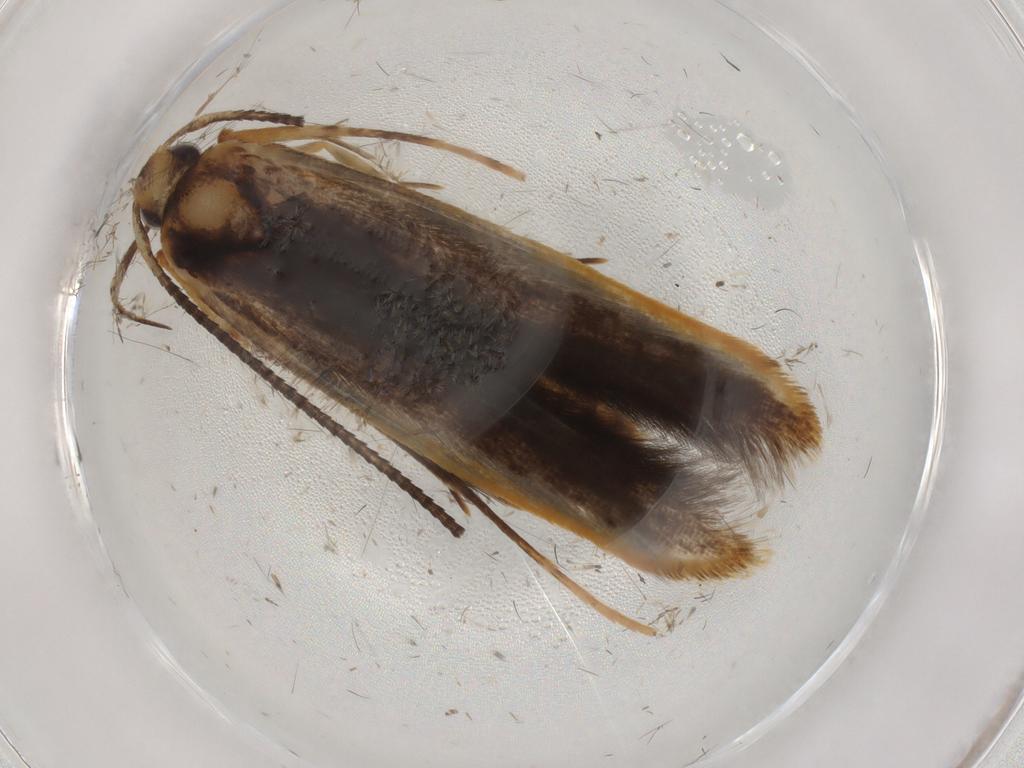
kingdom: Animalia
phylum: Arthropoda
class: Insecta
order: Lepidoptera
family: Pterolonchidae
